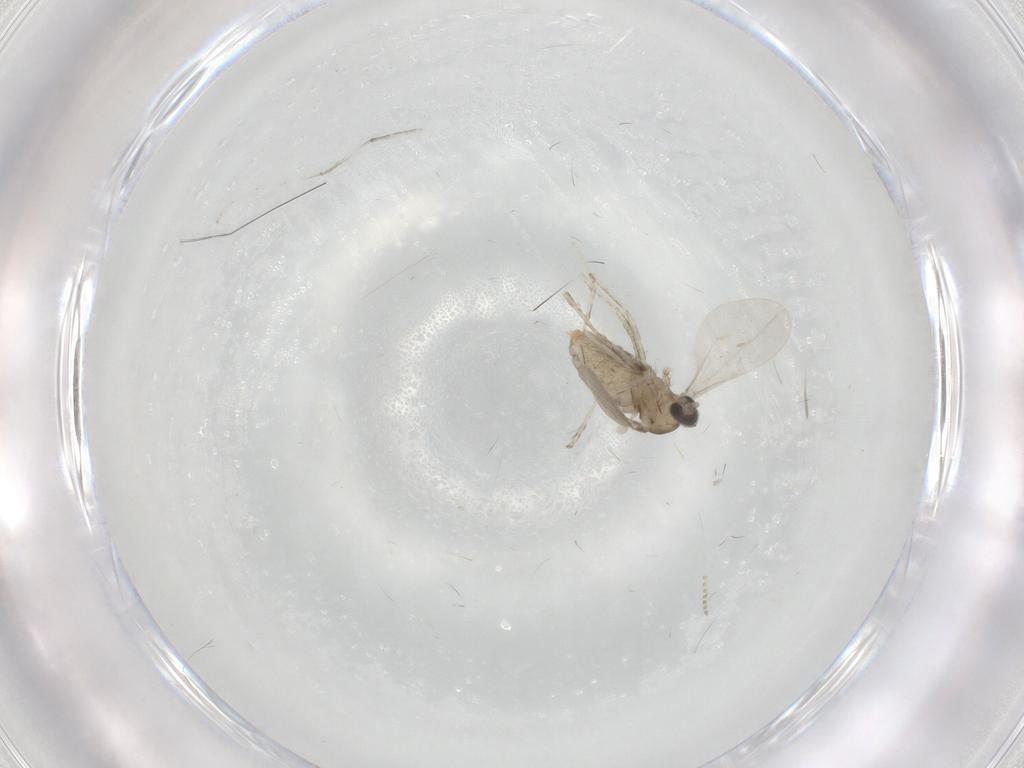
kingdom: Animalia
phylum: Arthropoda
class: Insecta
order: Diptera
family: Psychodidae
